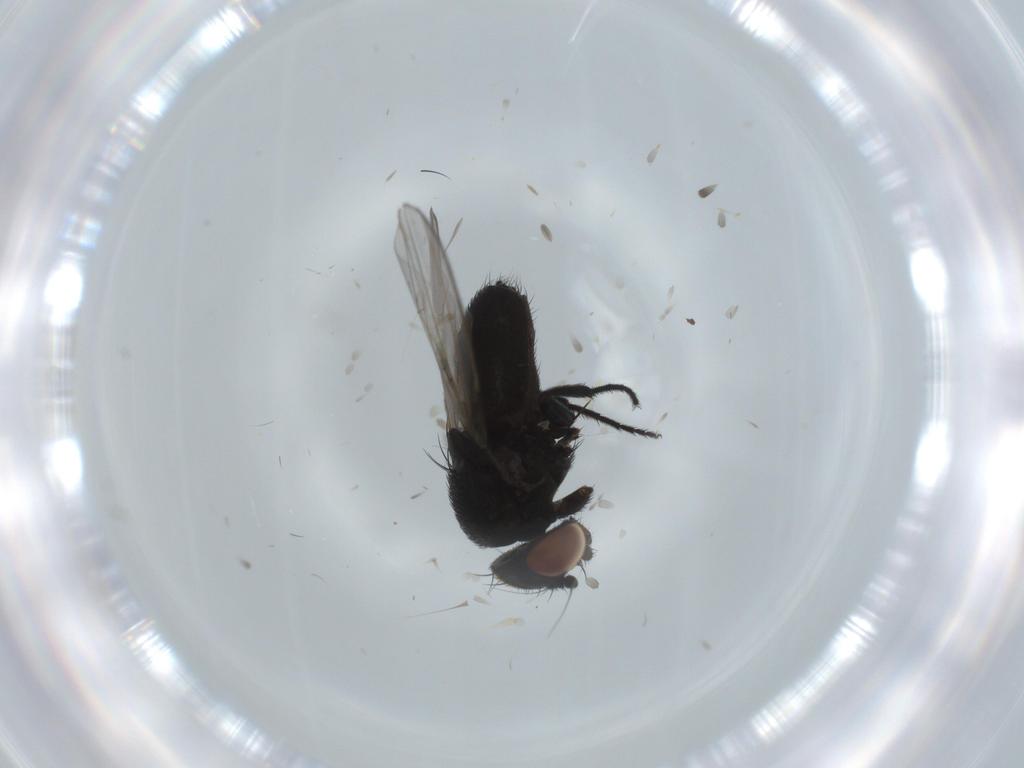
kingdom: Animalia
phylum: Arthropoda
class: Insecta
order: Diptera
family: Milichiidae
